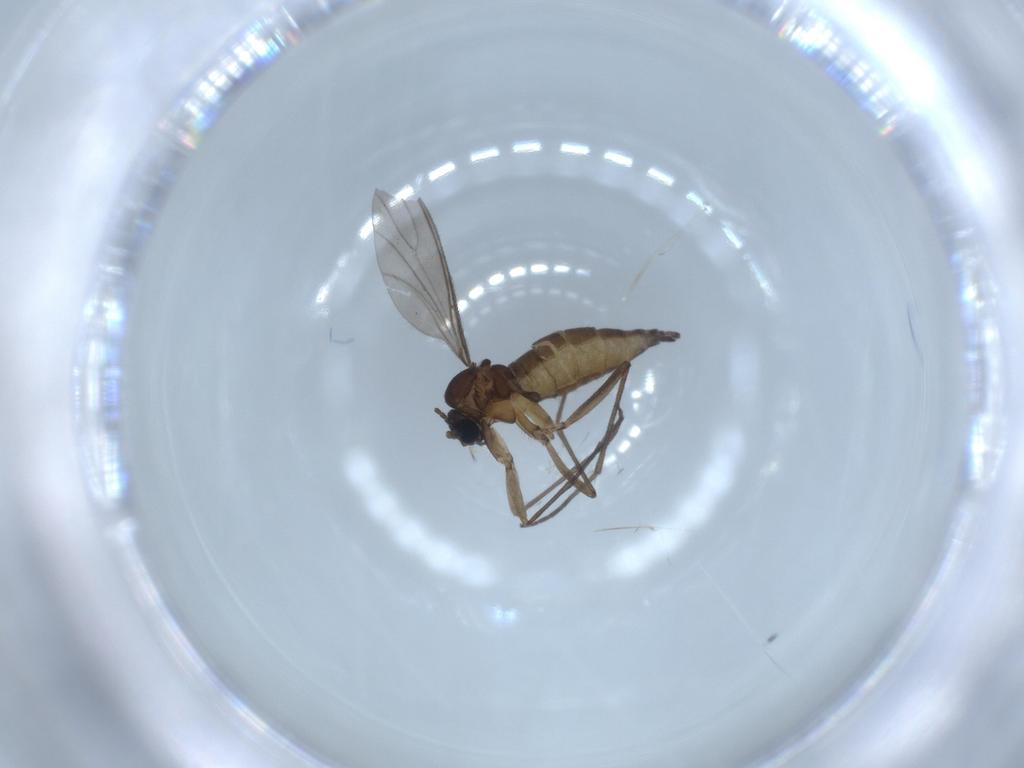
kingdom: Animalia
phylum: Arthropoda
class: Insecta
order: Diptera
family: Sciaridae
